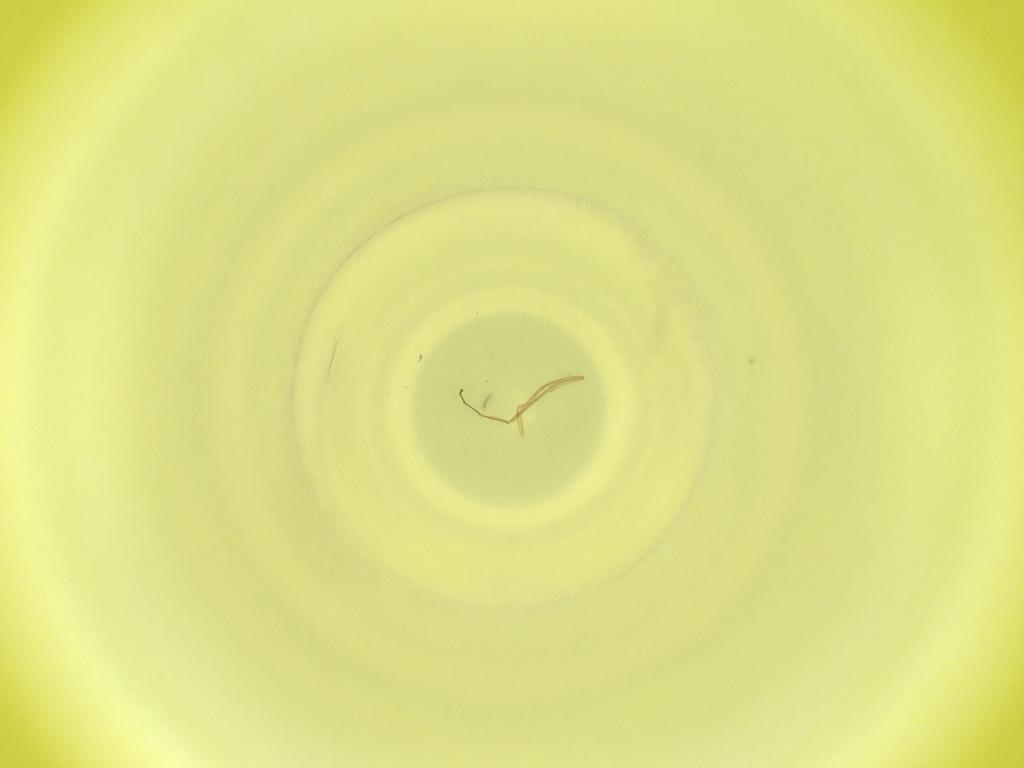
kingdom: Animalia
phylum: Arthropoda
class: Insecta
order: Diptera
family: Cecidomyiidae
